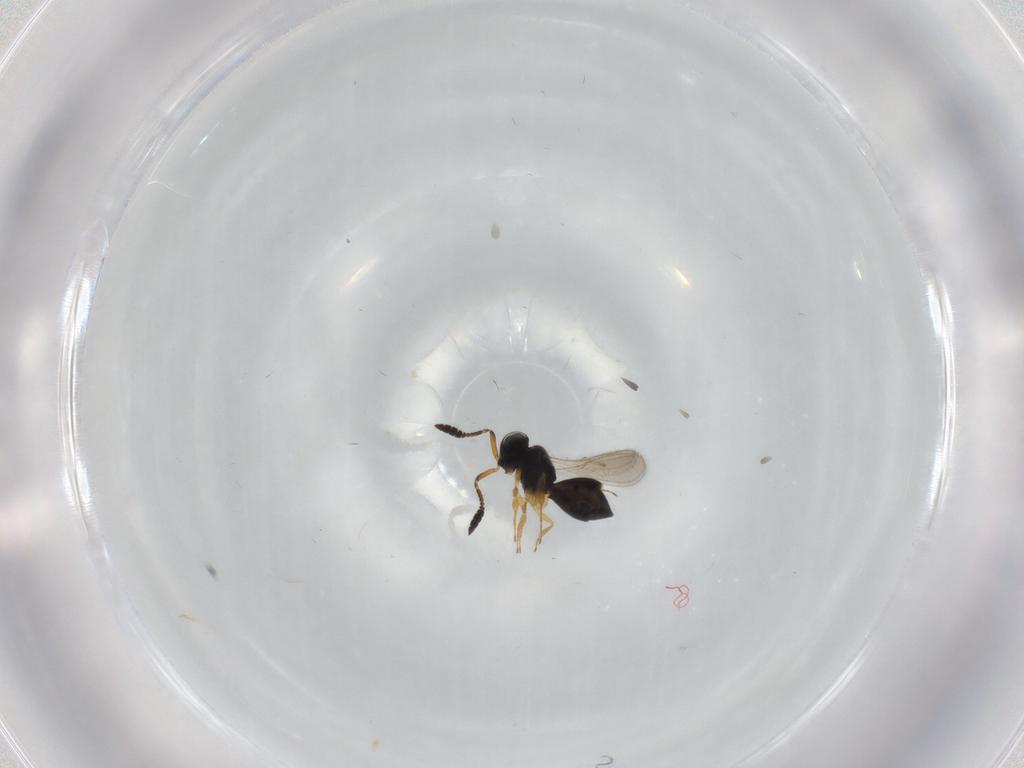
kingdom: Animalia
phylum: Arthropoda
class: Insecta
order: Hymenoptera
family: Scelionidae
